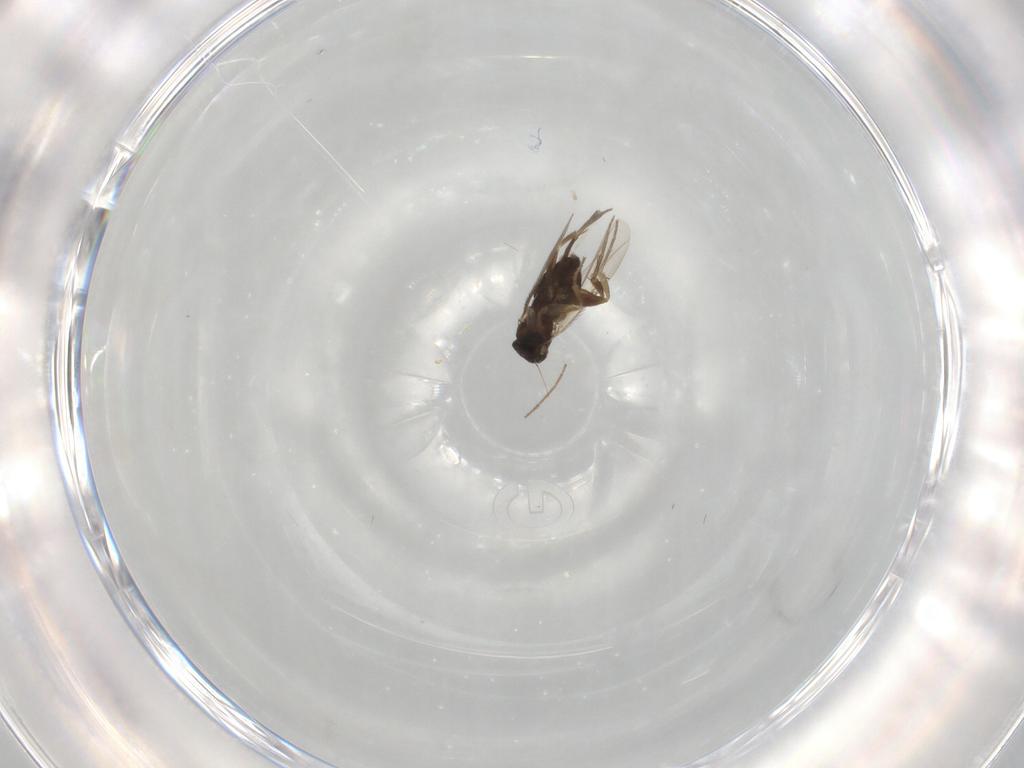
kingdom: Animalia
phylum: Arthropoda
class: Insecta
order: Diptera
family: Phoridae
